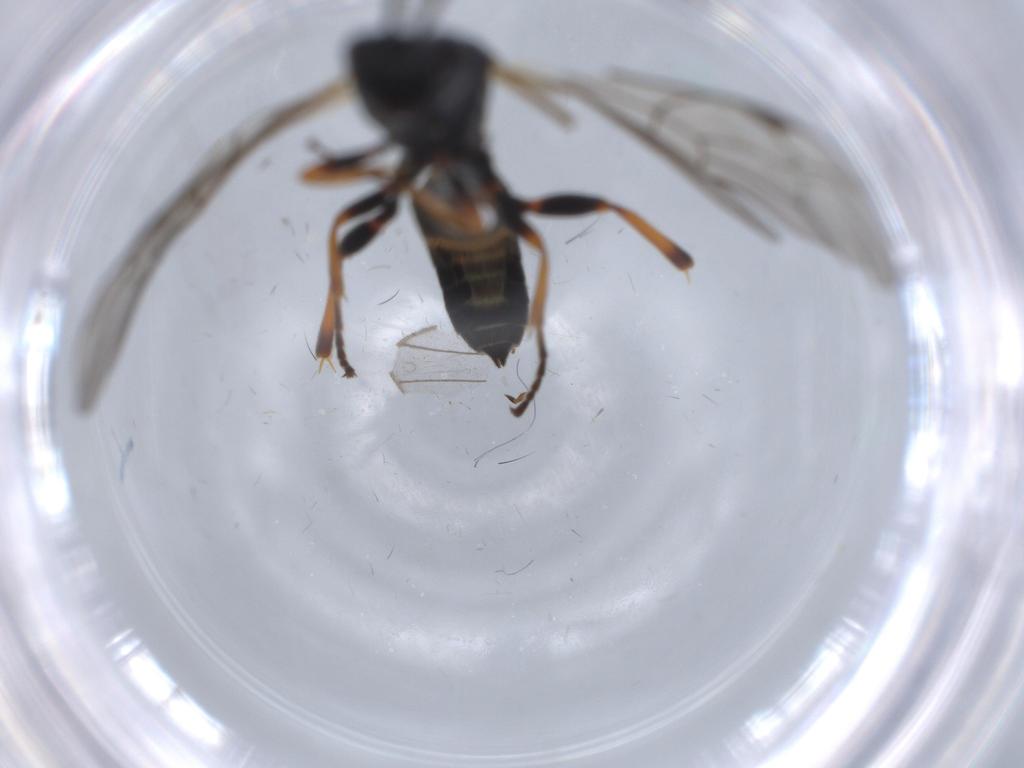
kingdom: Animalia
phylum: Arthropoda
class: Insecta
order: Hymenoptera
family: Ichneumonidae
